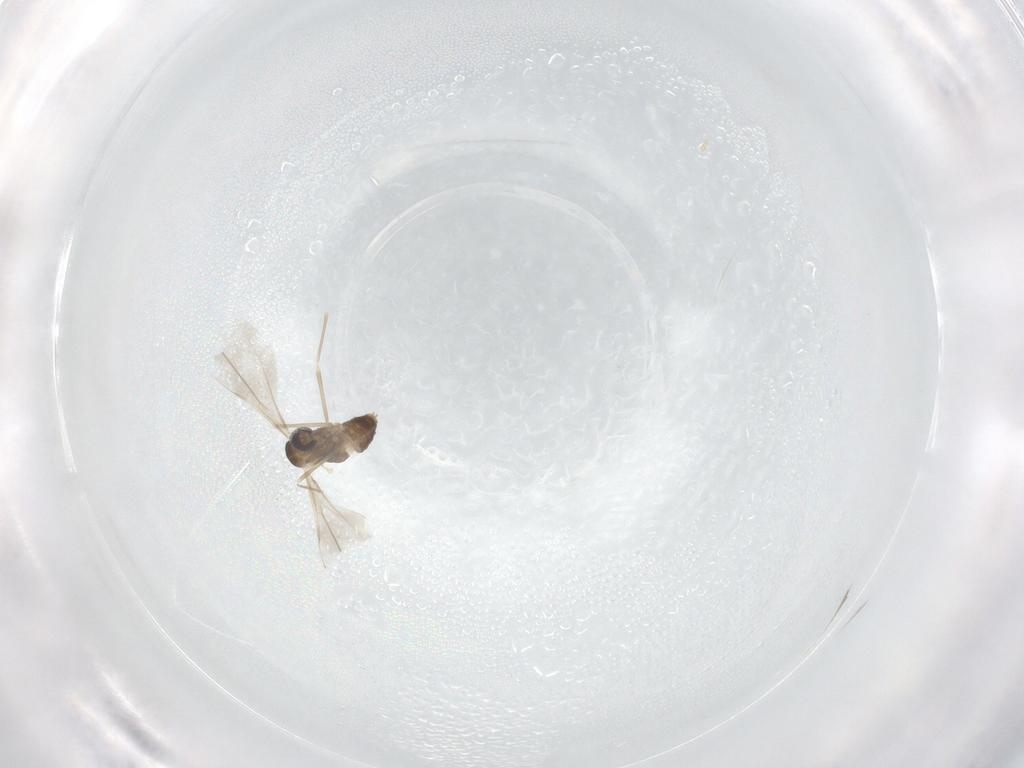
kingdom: Animalia
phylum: Arthropoda
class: Insecta
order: Diptera
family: Cecidomyiidae
